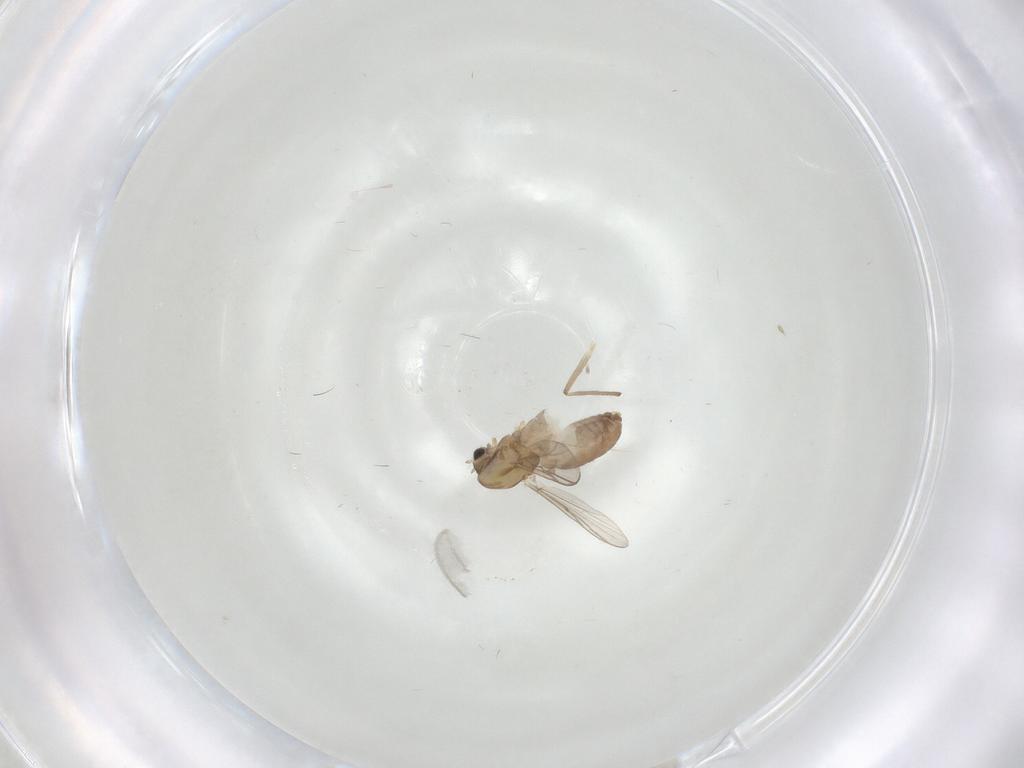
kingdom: Animalia
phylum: Arthropoda
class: Insecta
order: Diptera
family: Chironomidae
